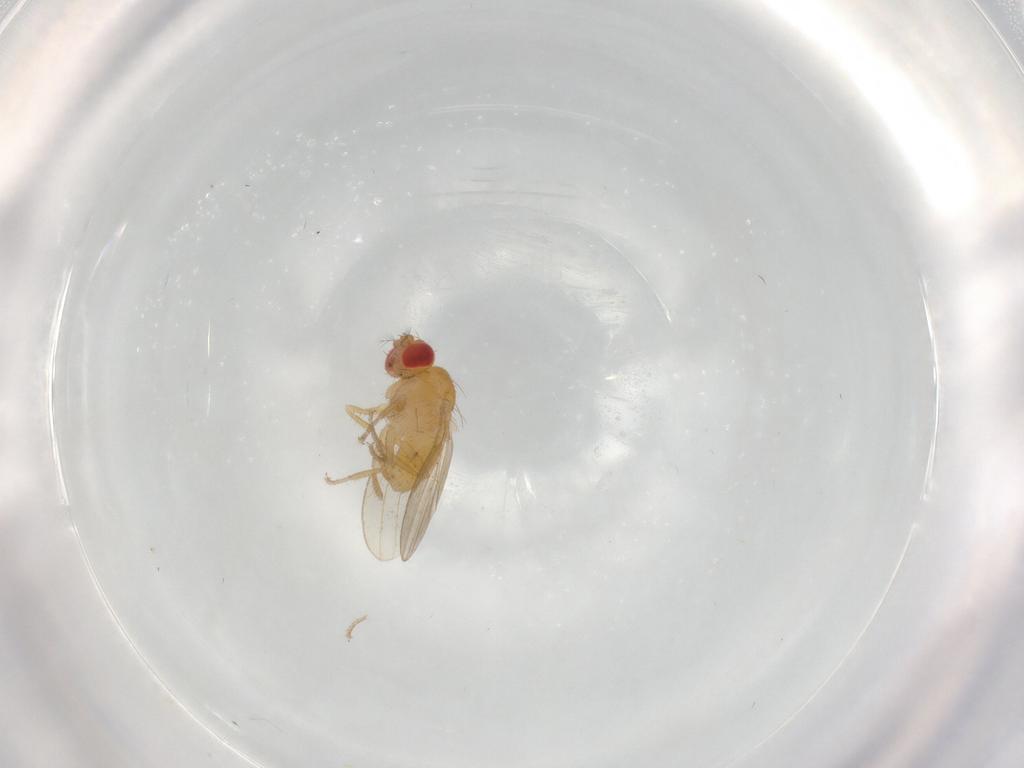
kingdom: Animalia
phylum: Arthropoda
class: Insecta
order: Diptera
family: Drosophilidae
